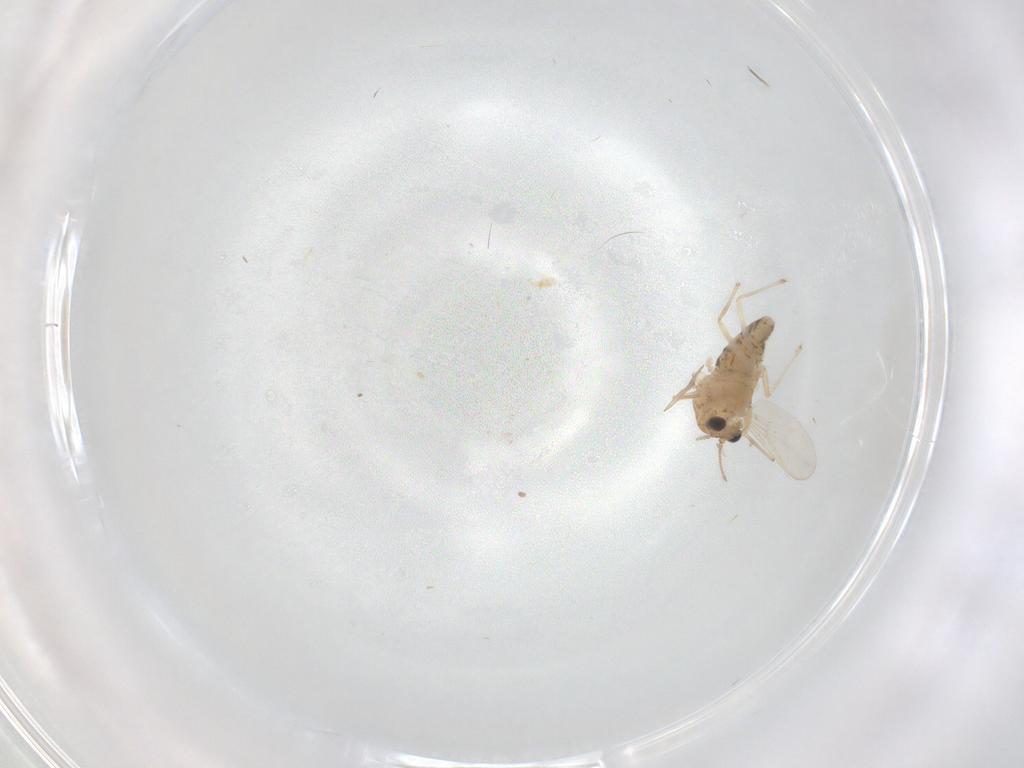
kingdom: Animalia
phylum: Arthropoda
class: Insecta
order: Diptera
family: Chironomidae
